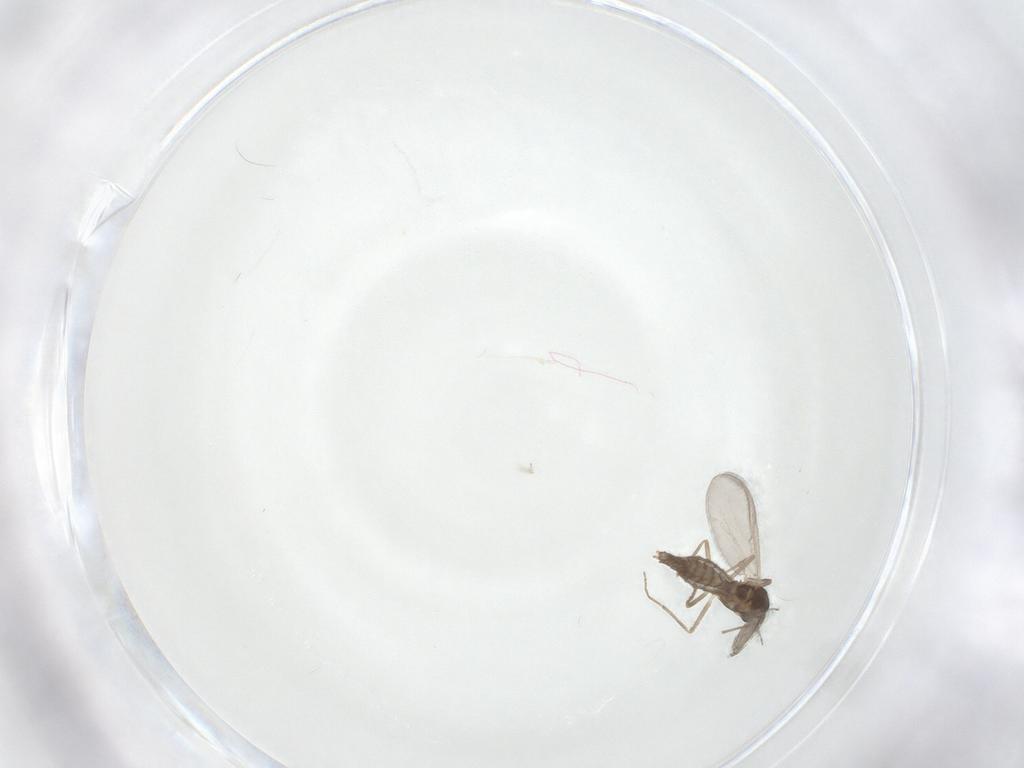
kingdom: Animalia
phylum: Arthropoda
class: Insecta
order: Diptera
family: Chironomidae
